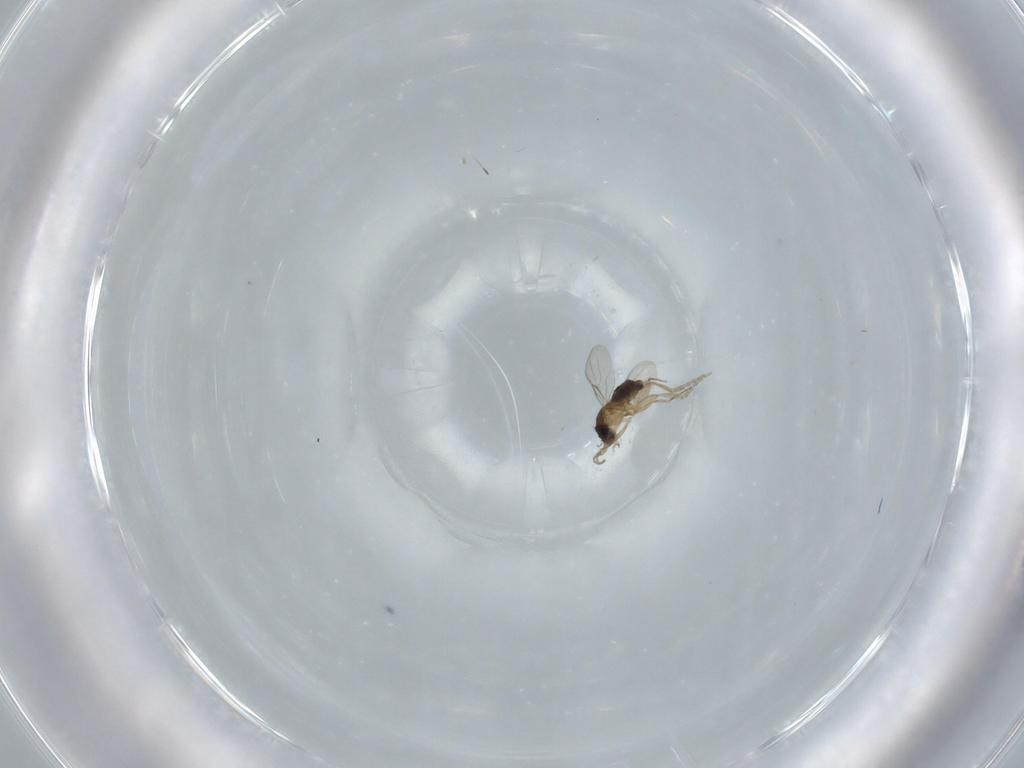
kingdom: Animalia
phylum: Arthropoda
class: Insecta
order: Diptera
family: Phoridae
